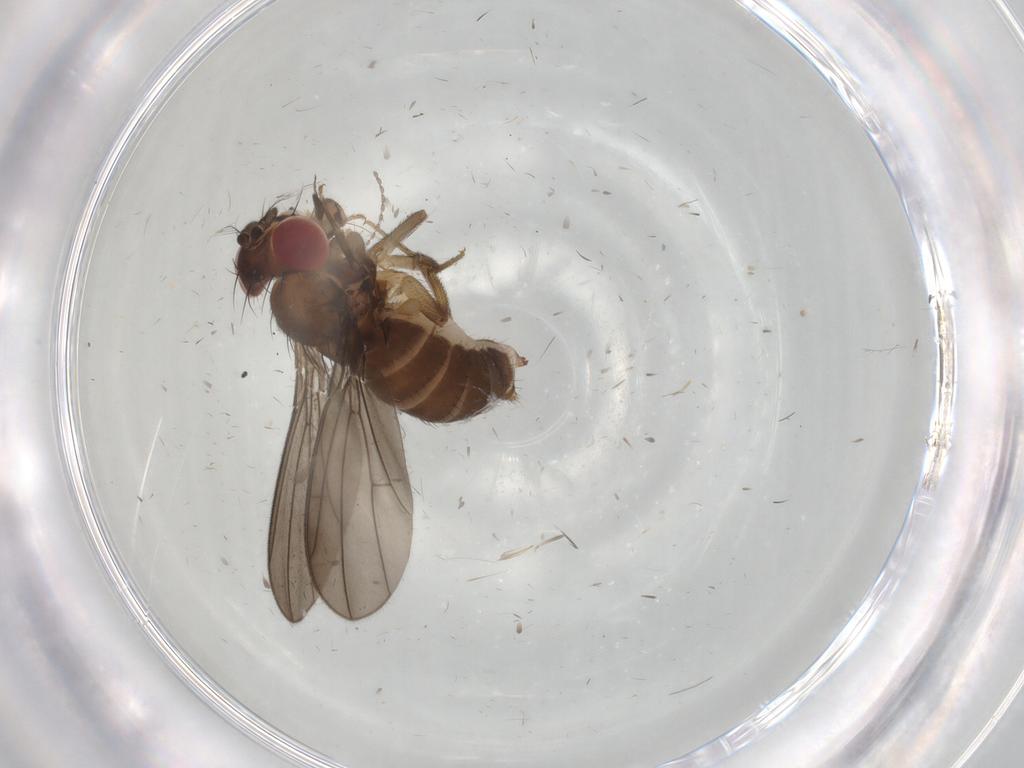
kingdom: Animalia
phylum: Arthropoda
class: Insecta
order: Diptera
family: Drosophilidae
